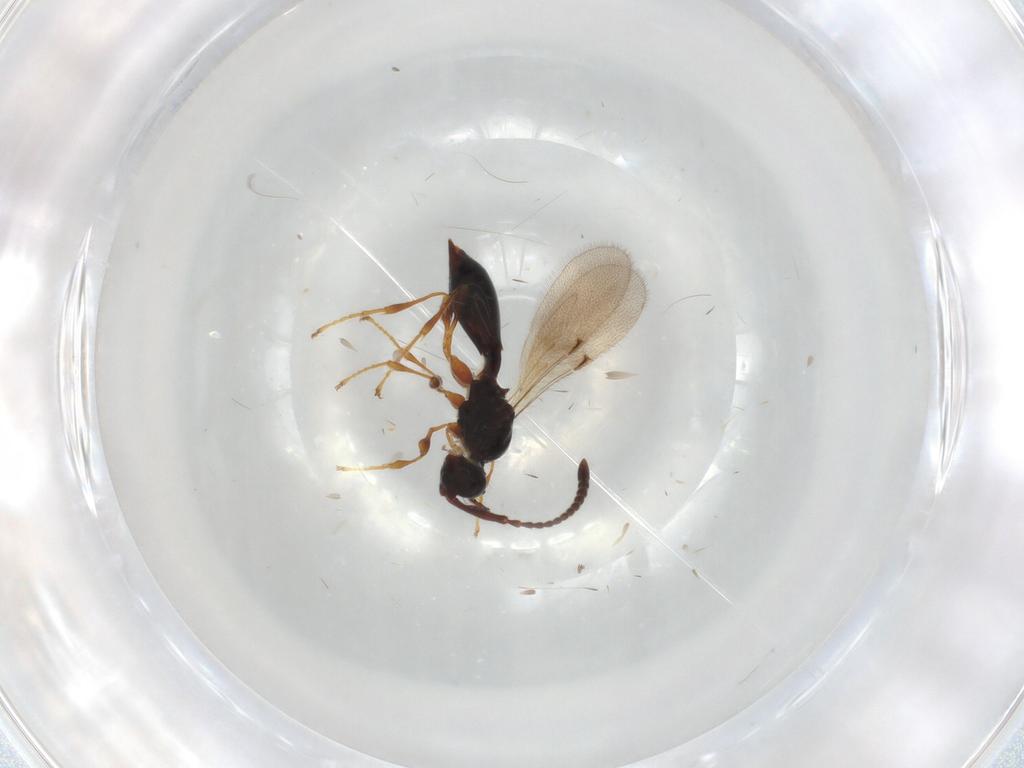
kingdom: Animalia
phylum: Arthropoda
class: Insecta
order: Hymenoptera
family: Diapriidae
